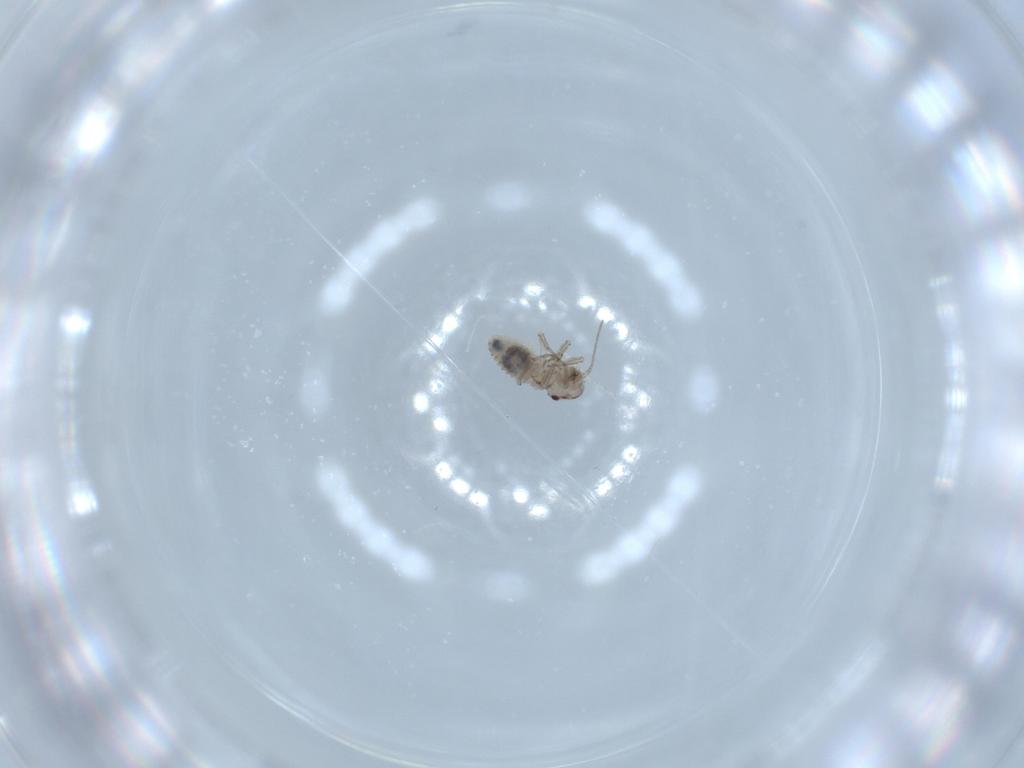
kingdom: Animalia
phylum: Arthropoda
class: Insecta
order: Psocodea
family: Psocidae
